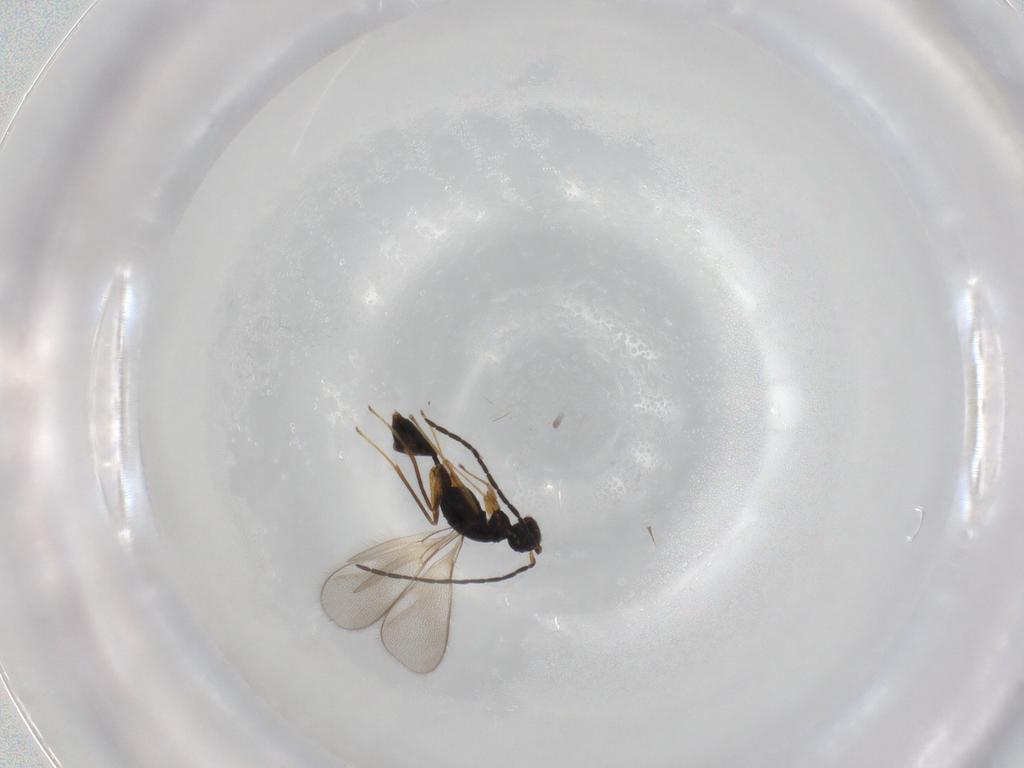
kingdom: Animalia
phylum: Arthropoda
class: Insecta
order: Hymenoptera
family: Mymaridae
